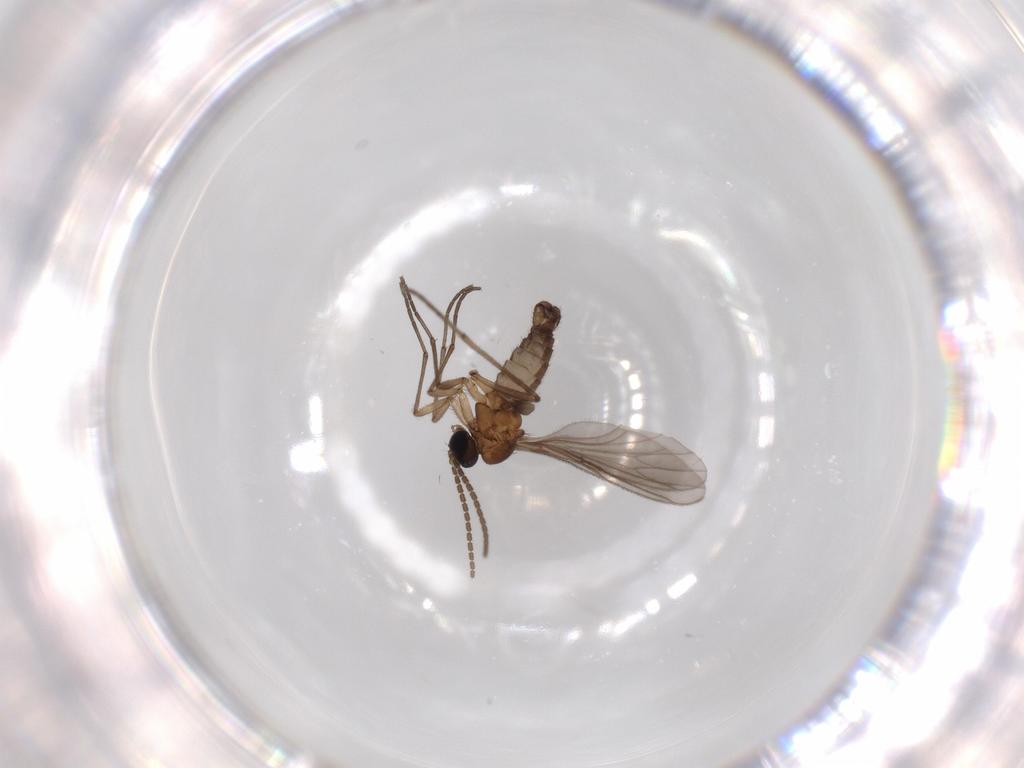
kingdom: Animalia
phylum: Arthropoda
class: Insecta
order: Diptera
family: Sciaridae
